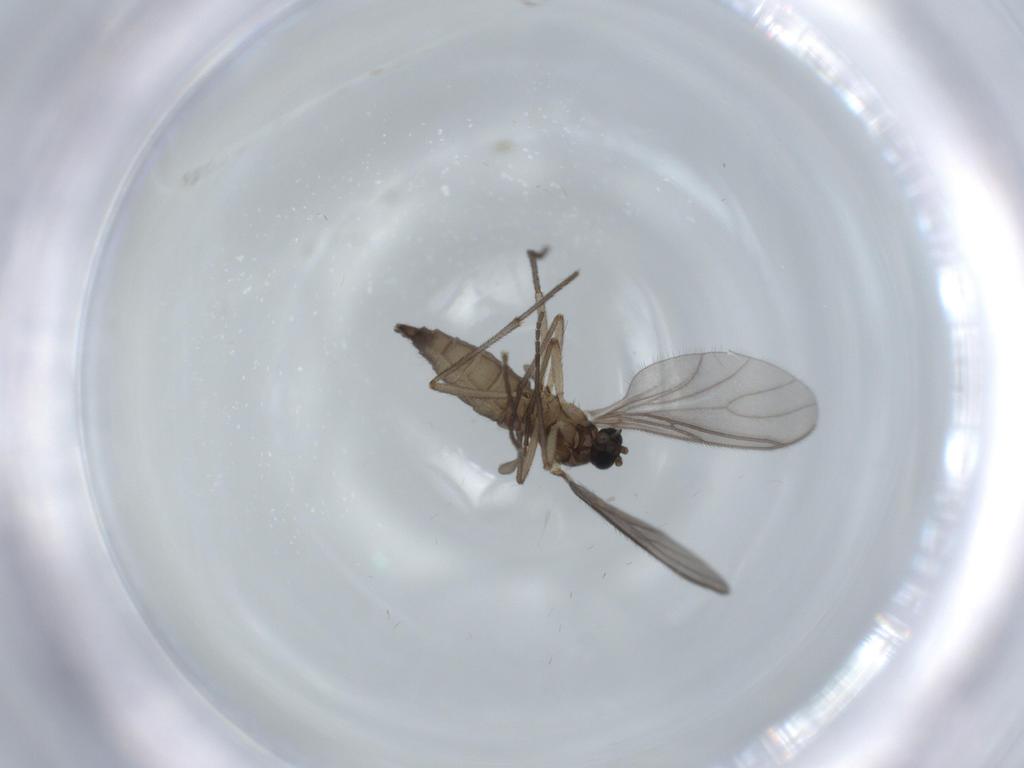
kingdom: Animalia
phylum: Arthropoda
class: Insecta
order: Diptera
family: Sciaridae
